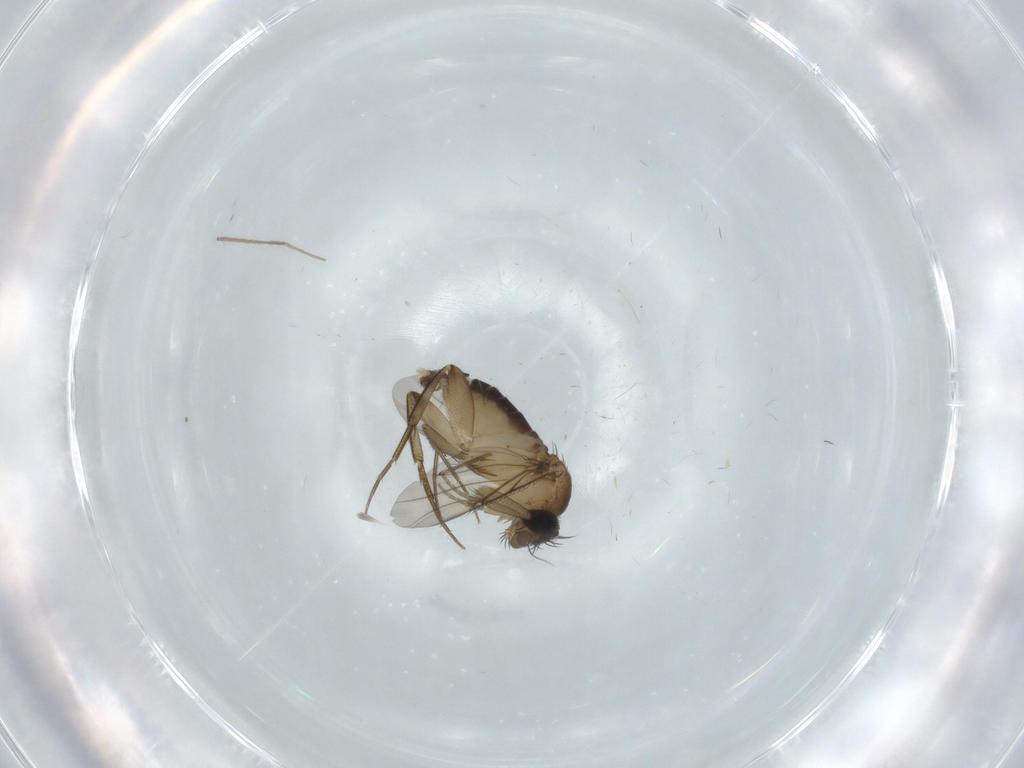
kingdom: Animalia
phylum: Arthropoda
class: Insecta
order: Diptera
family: Phoridae
